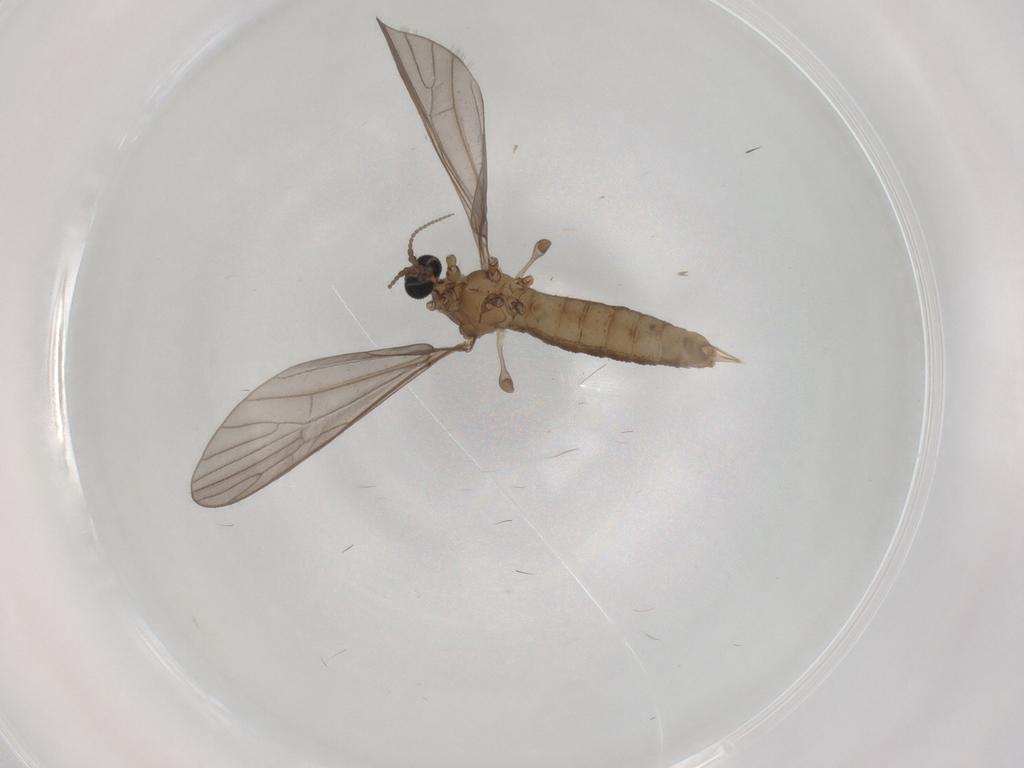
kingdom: Animalia
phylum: Arthropoda
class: Insecta
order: Diptera
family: Limoniidae
